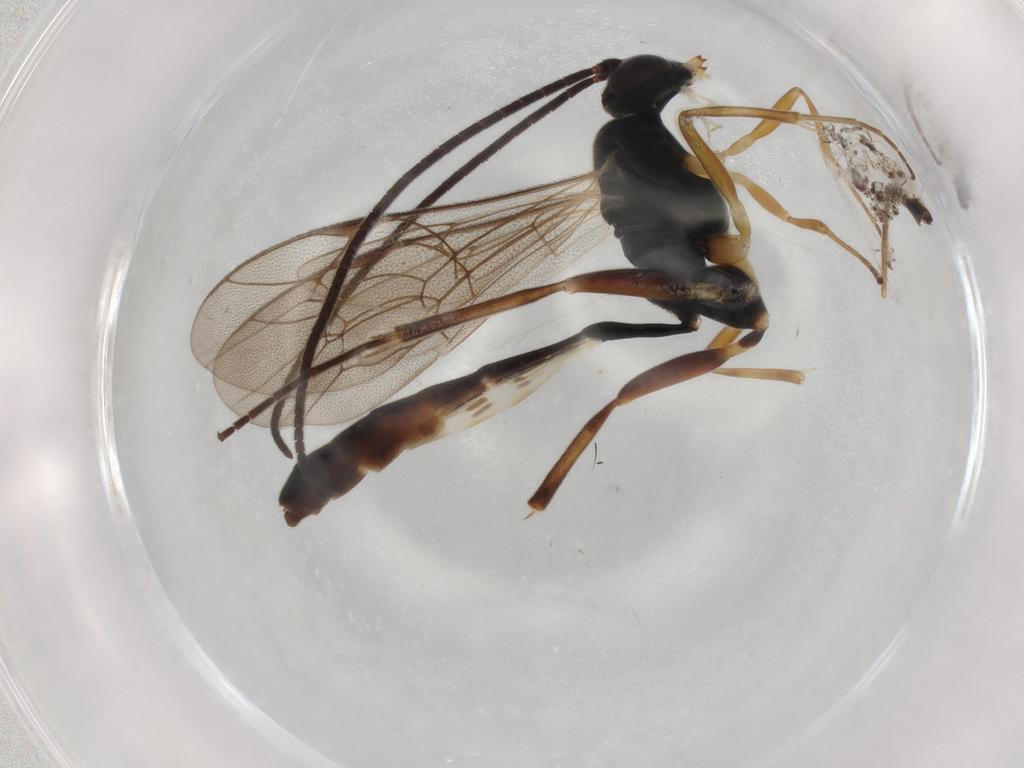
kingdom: Animalia
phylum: Arthropoda
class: Insecta
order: Hymenoptera
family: Ichneumonidae
